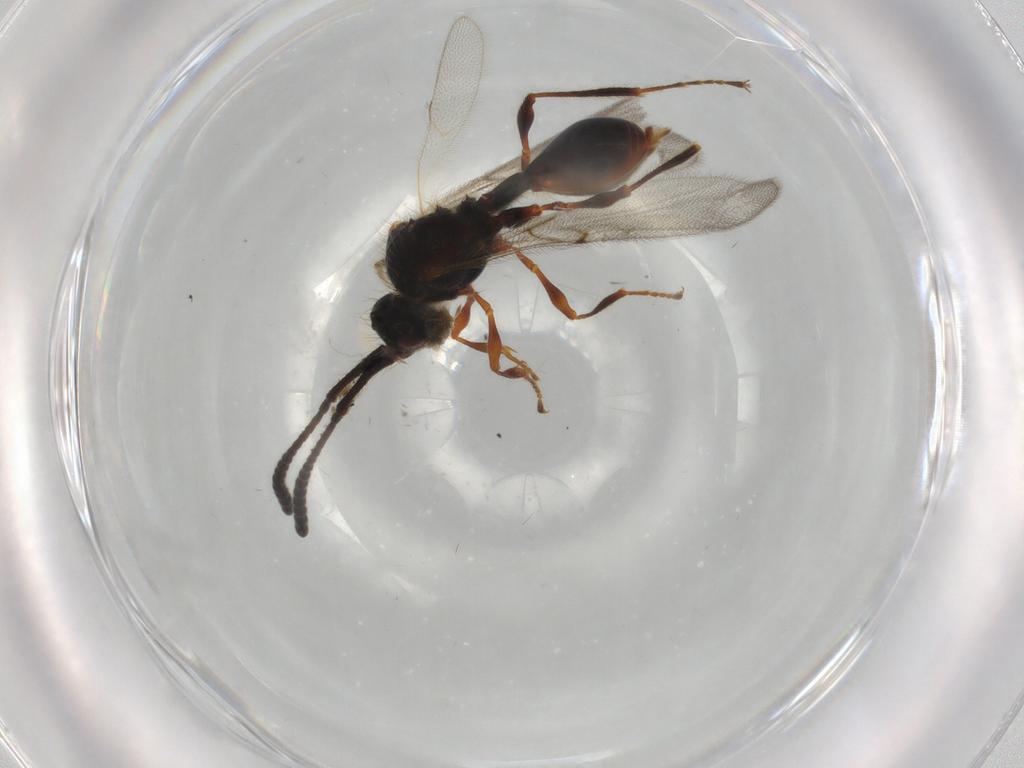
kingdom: Animalia
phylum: Arthropoda
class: Insecta
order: Hymenoptera
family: Diapriidae
